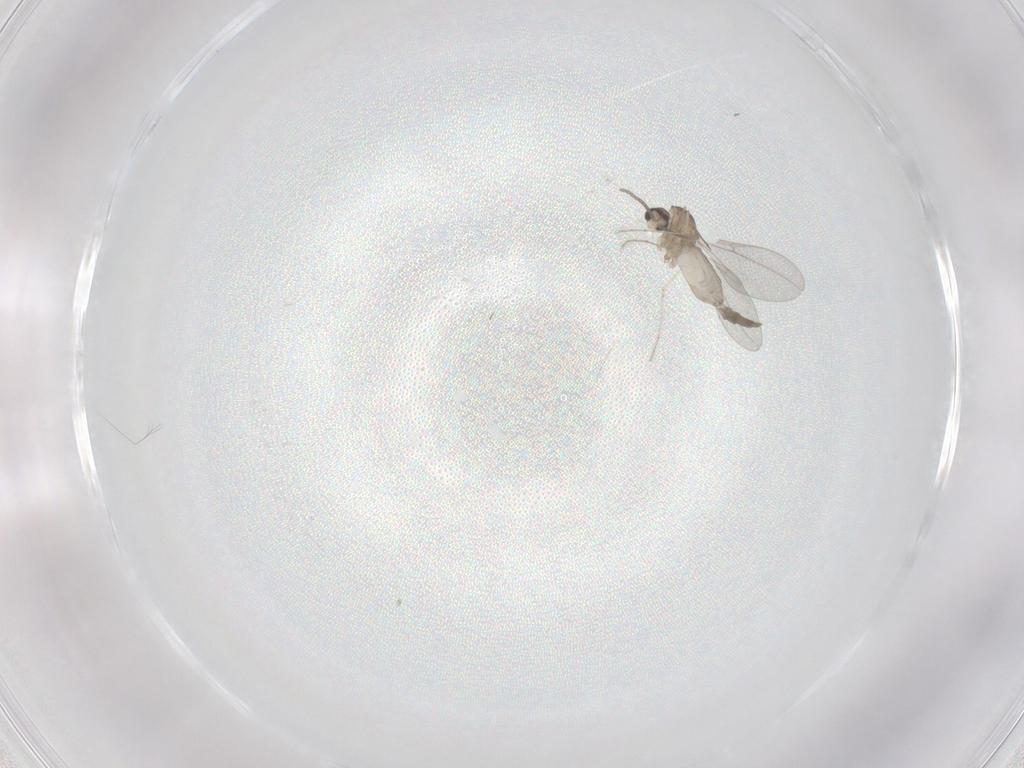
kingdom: Animalia
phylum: Arthropoda
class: Insecta
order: Diptera
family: Cecidomyiidae
